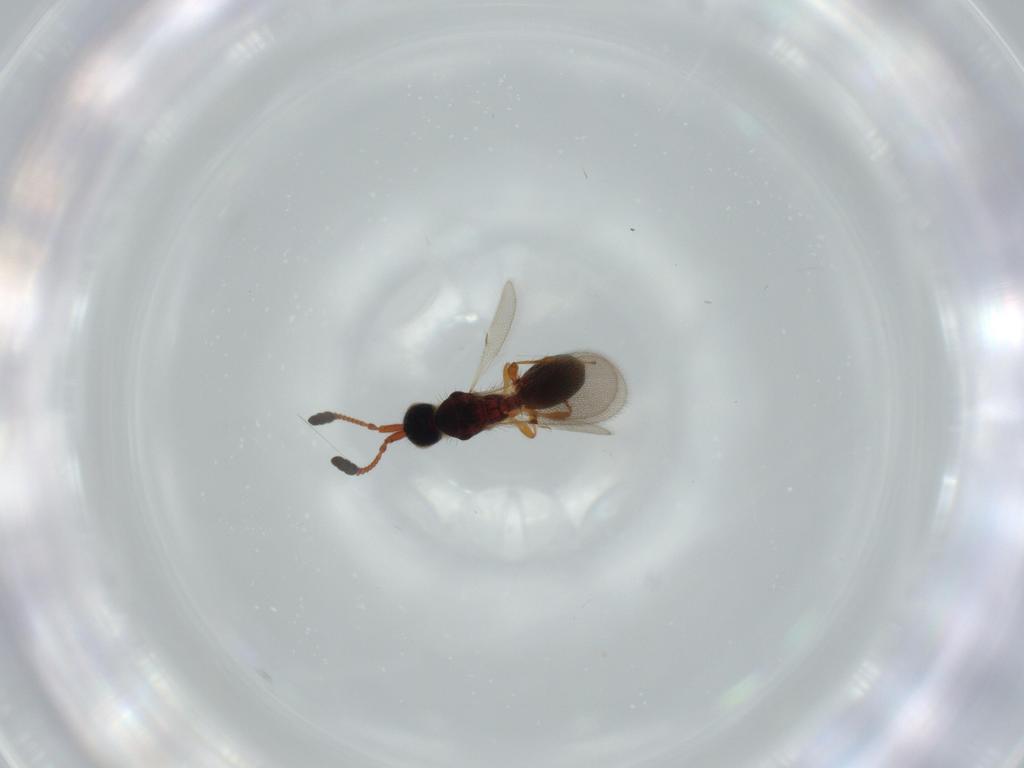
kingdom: Animalia
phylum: Arthropoda
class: Insecta
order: Hymenoptera
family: Diapriidae
